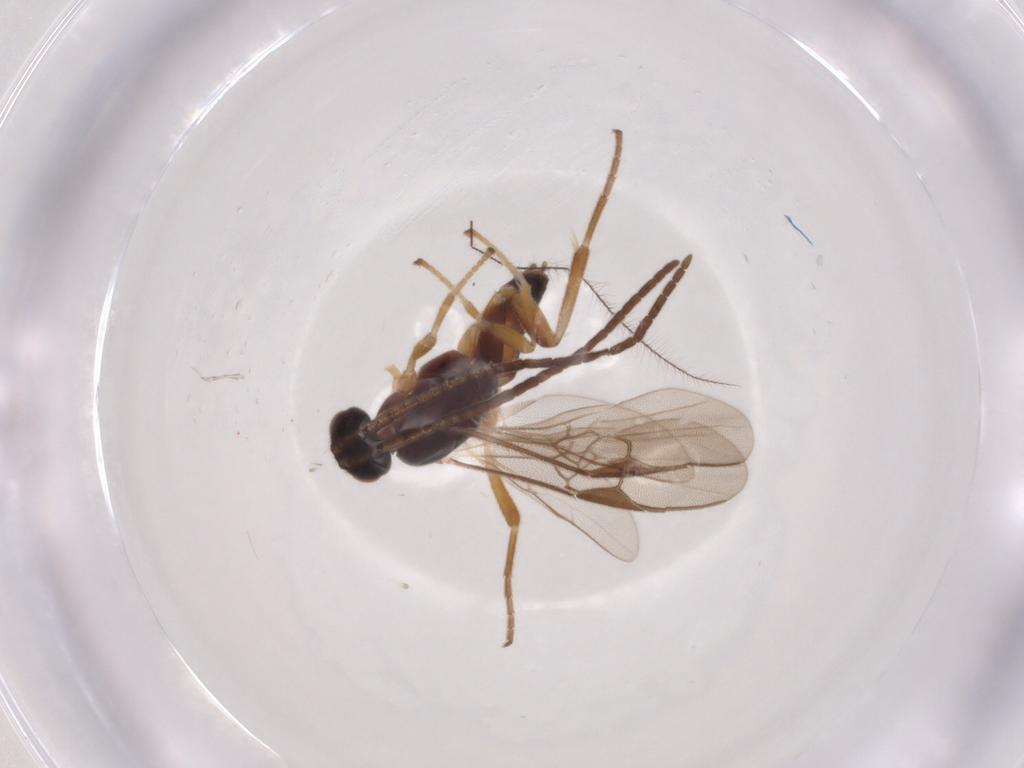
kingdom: Animalia
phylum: Arthropoda
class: Insecta
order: Hymenoptera
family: Braconidae
